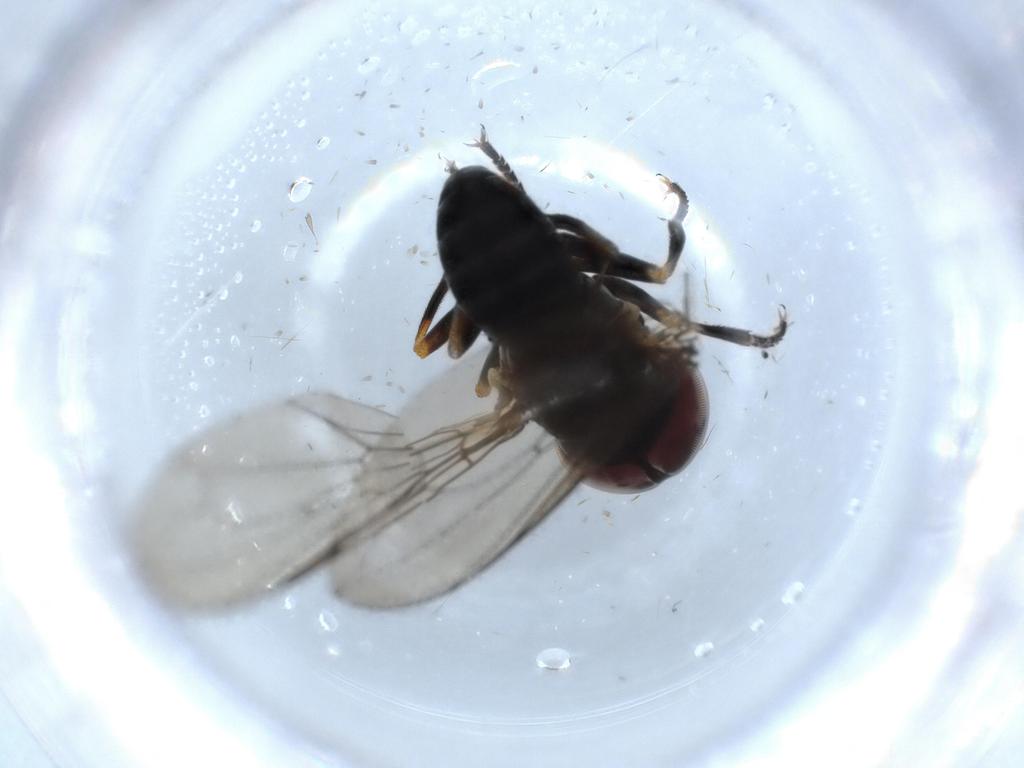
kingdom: Animalia
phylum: Arthropoda
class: Insecta
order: Diptera
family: Pipunculidae
